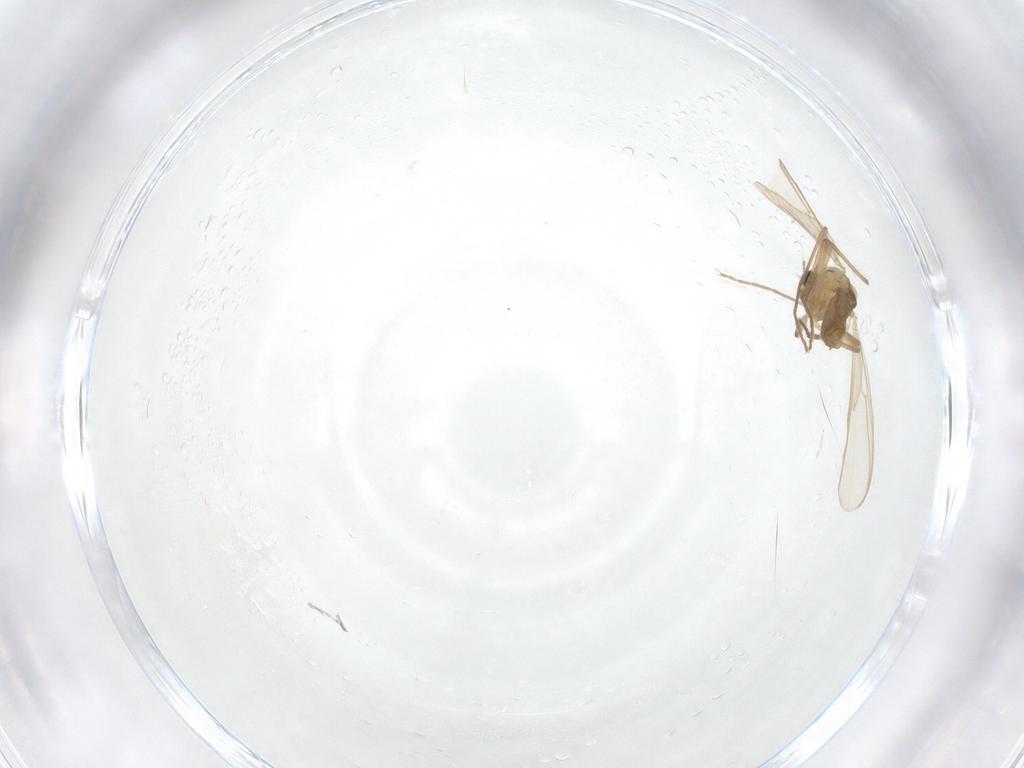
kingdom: Animalia
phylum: Arthropoda
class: Insecta
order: Diptera
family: Chironomidae
